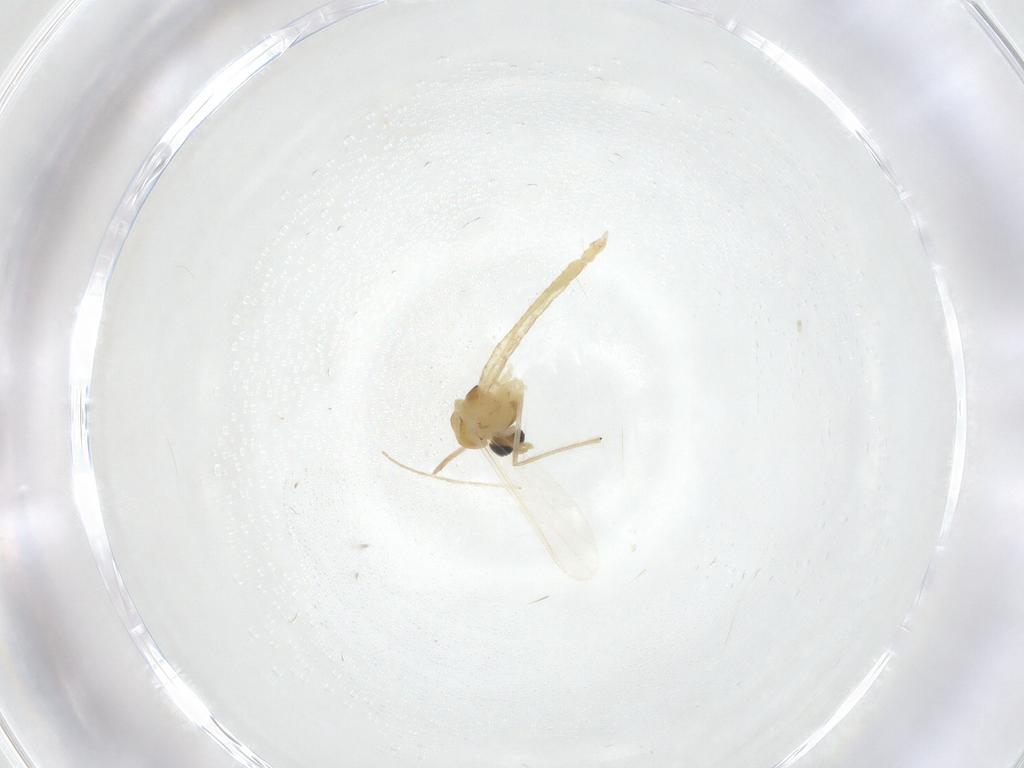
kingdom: Animalia
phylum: Arthropoda
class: Insecta
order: Diptera
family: Chironomidae
